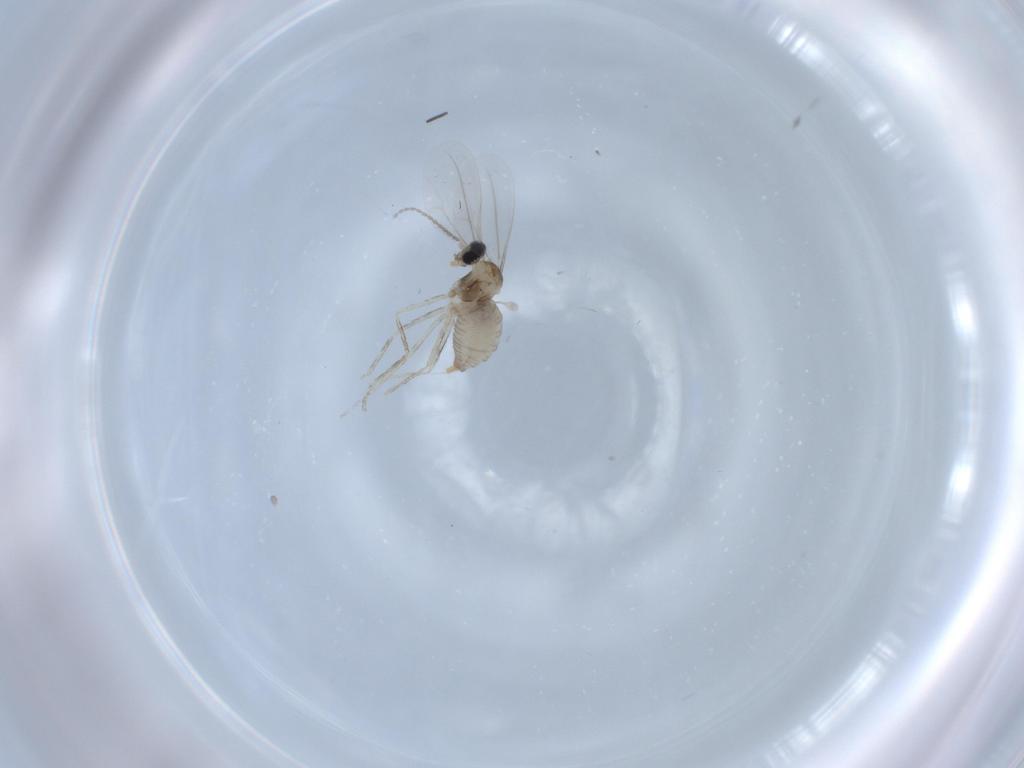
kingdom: Animalia
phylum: Arthropoda
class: Insecta
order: Diptera
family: Cecidomyiidae
